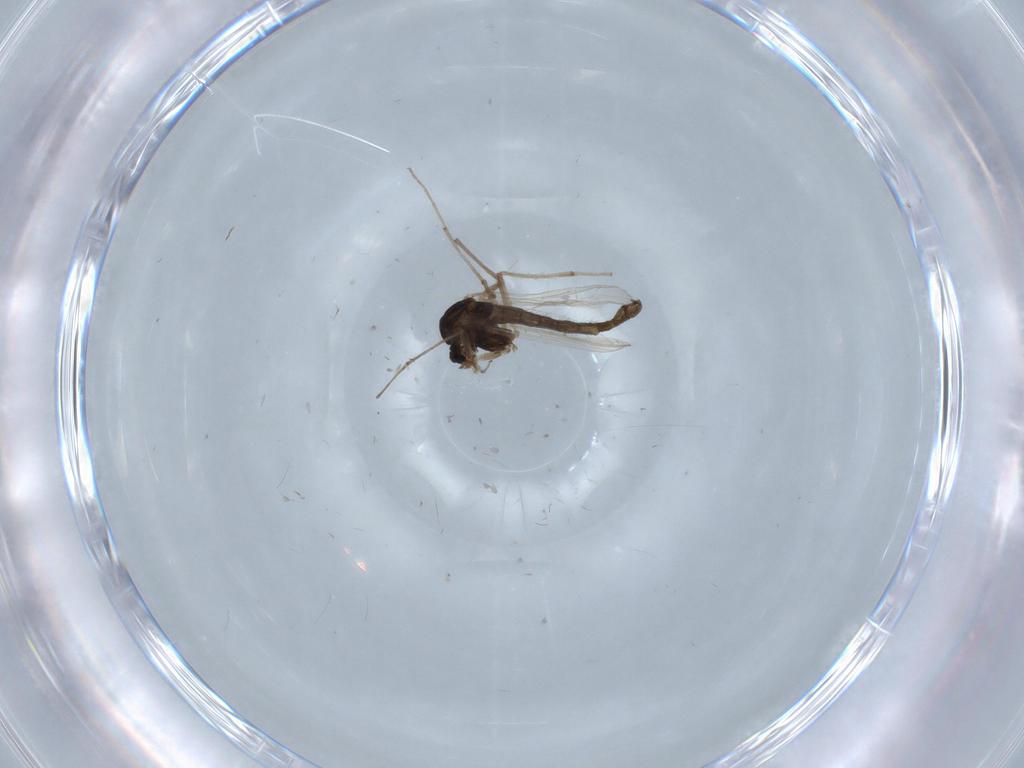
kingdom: Animalia
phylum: Arthropoda
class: Insecta
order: Diptera
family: Chironomidae
